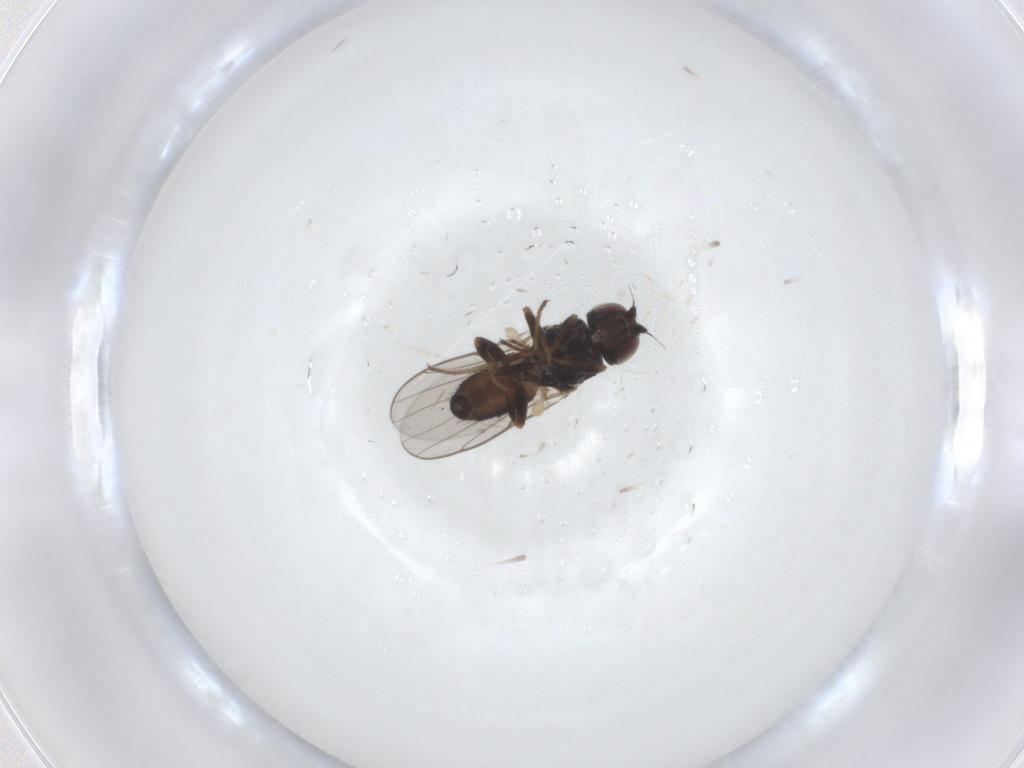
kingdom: Animalia
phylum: Arthropoda
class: Insecta
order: Diptera
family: Chloropidae
